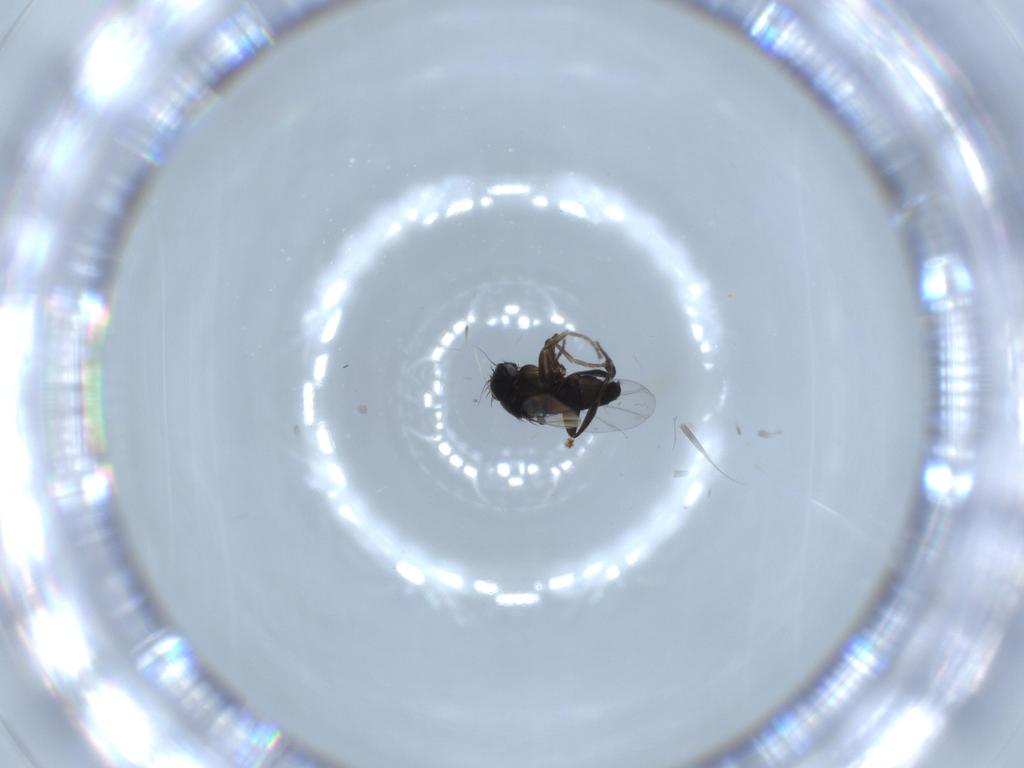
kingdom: Animalia
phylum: Arthropoda
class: Insecta
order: Diptera
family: Phoridae
